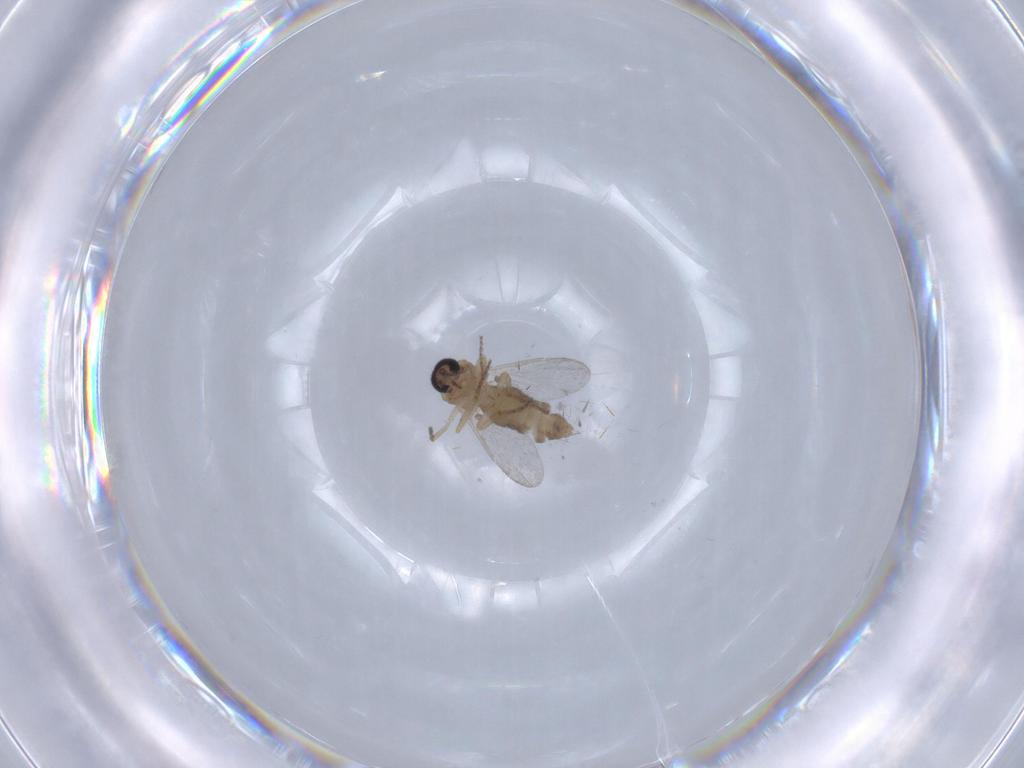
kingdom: Animalia
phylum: Arthropoda
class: Insecta
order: Diptera
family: Ceratopogonidae
